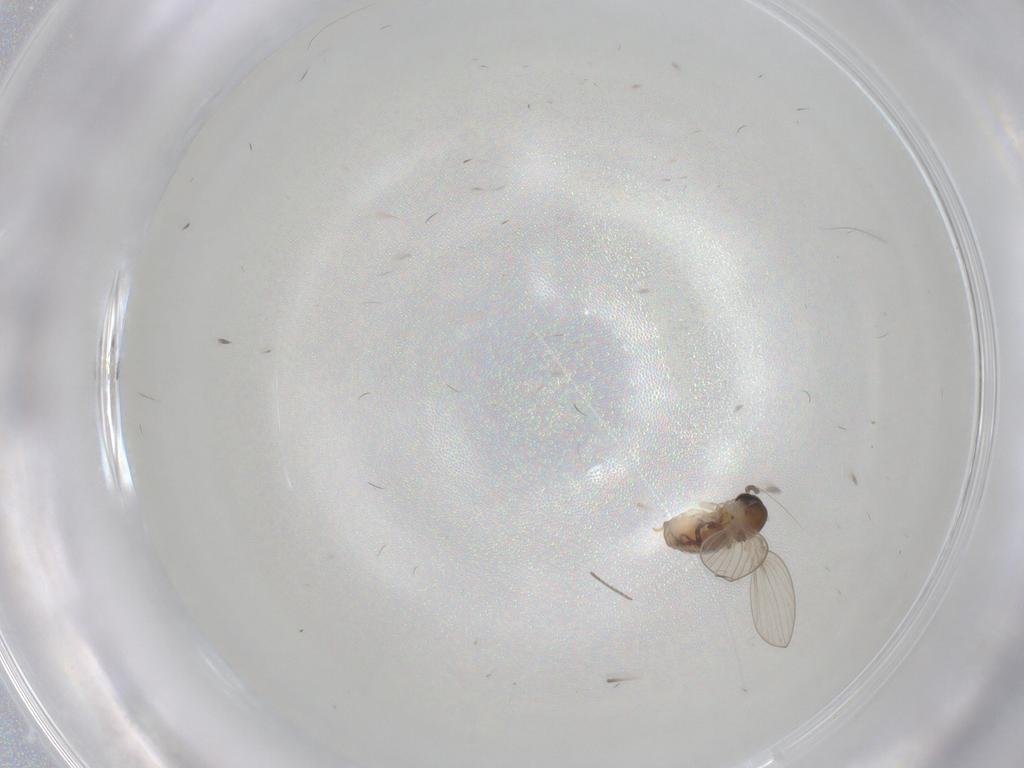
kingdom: Animalia
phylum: Arthropoda
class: Insecta
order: Diptera
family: Psychodidae
